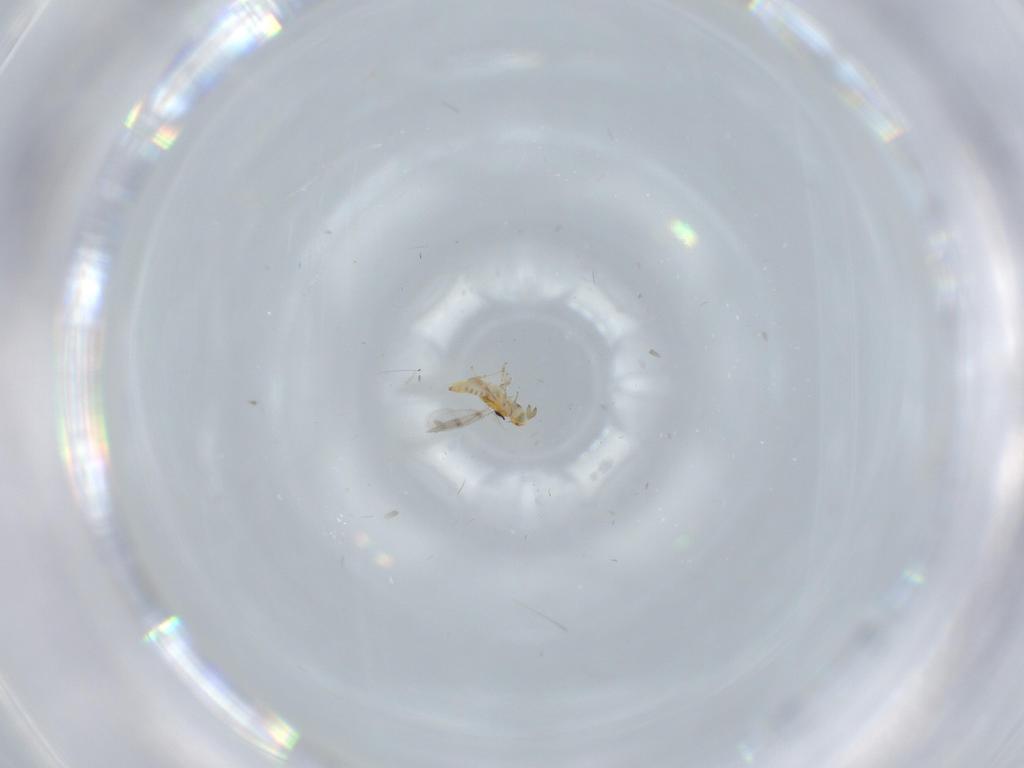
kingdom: Animalia
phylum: Arthropoda
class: Insecta
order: Hymenoptera
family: Aphelinidae
